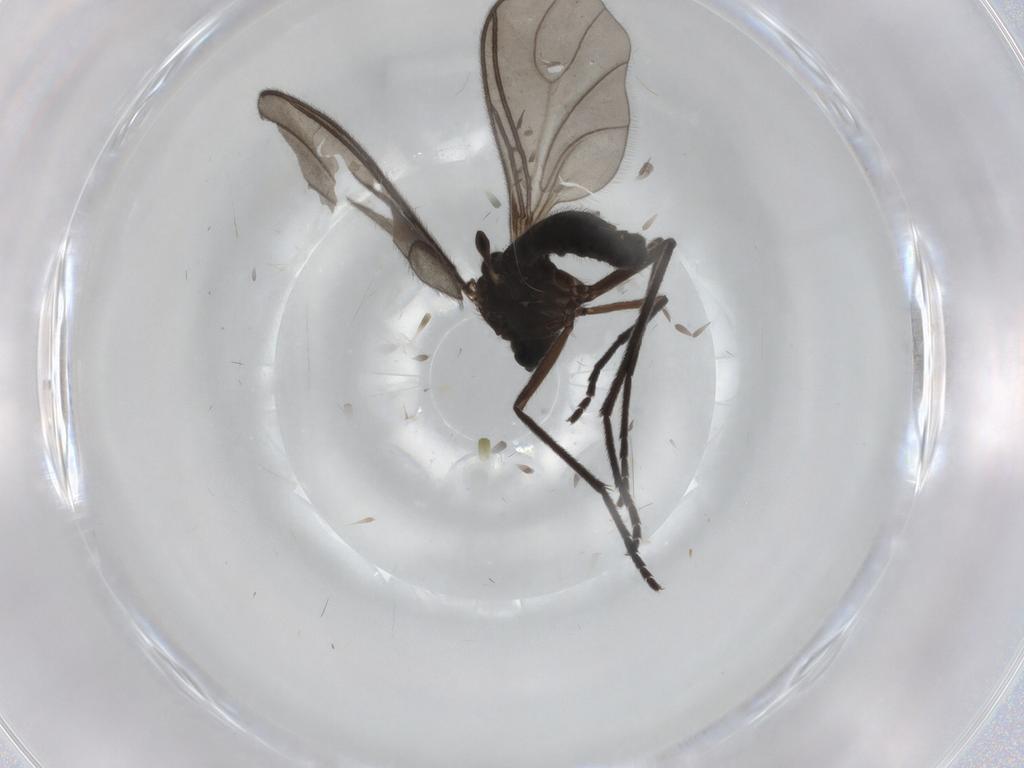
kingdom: Animalia
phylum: Arthropoda
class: Insecta
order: Diptera
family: Sciaridae
